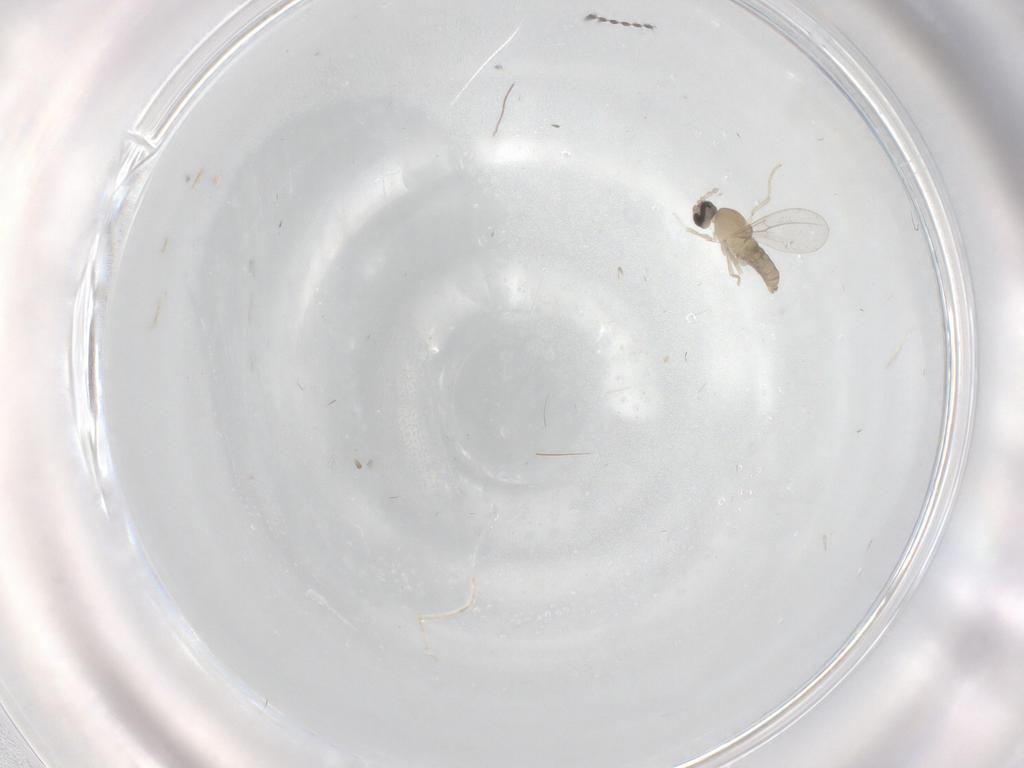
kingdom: Animalia
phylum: Arthropoda
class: Insecta
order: Diptera
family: Cecidomyiidae
